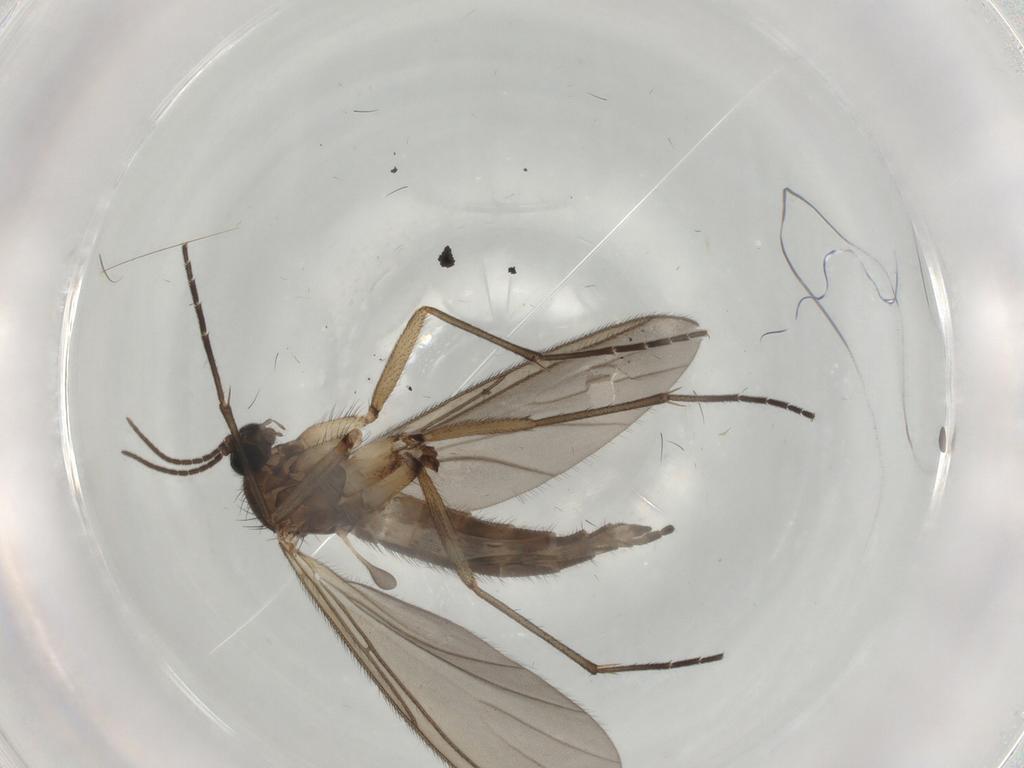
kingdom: Animalia
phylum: Arthropoda
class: Insecta
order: Diptera
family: Sciaridae
